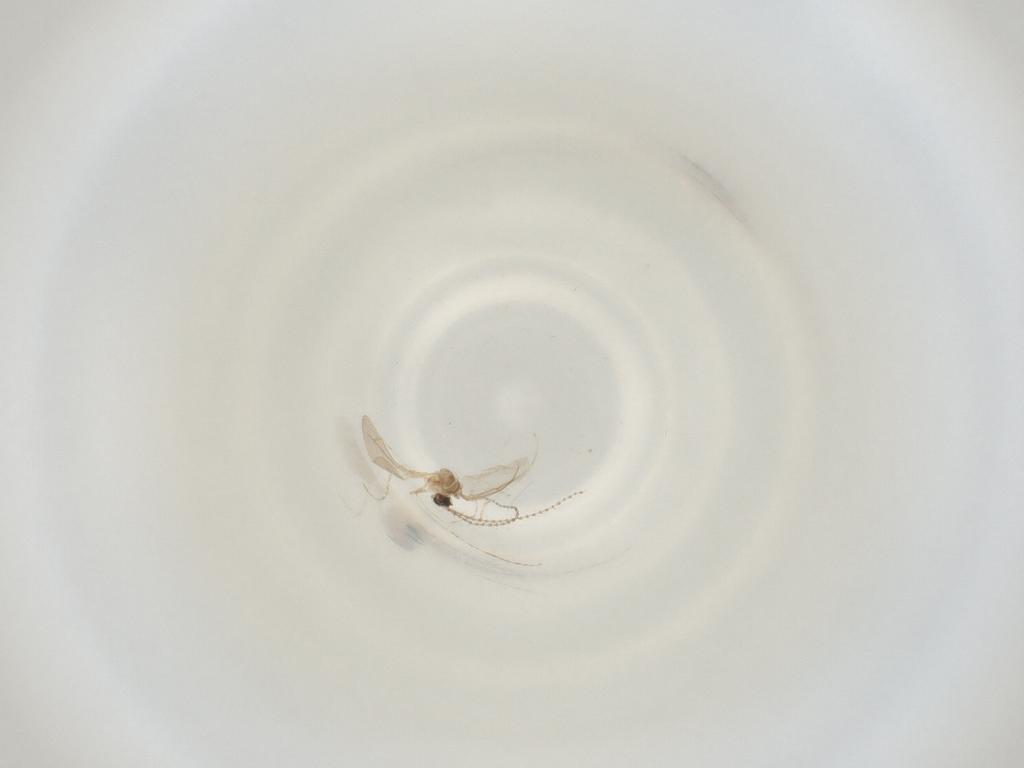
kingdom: Animalia
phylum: Arthropoda
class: Insecta
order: Diptera
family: Cecidomyiidae
